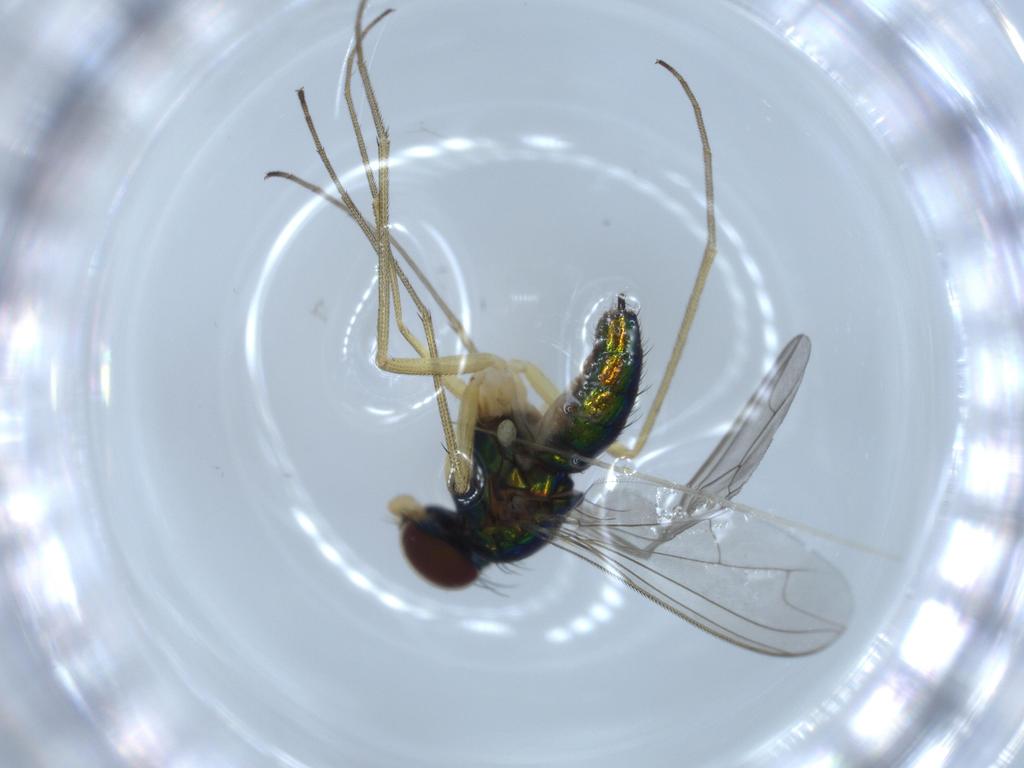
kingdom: Animalia
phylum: Arthropoda
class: Insecta
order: Diptera
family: Dolichopodidae
